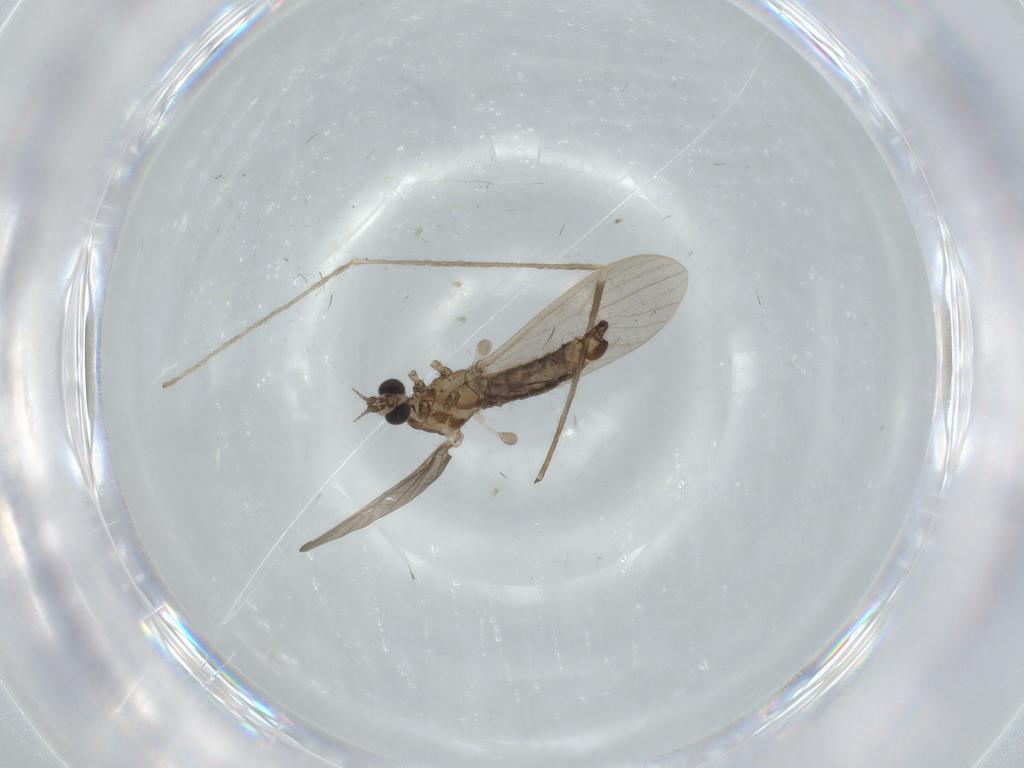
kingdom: Animalia
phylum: Arthropoda
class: Insecta
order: Diptera
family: Limoniidae
